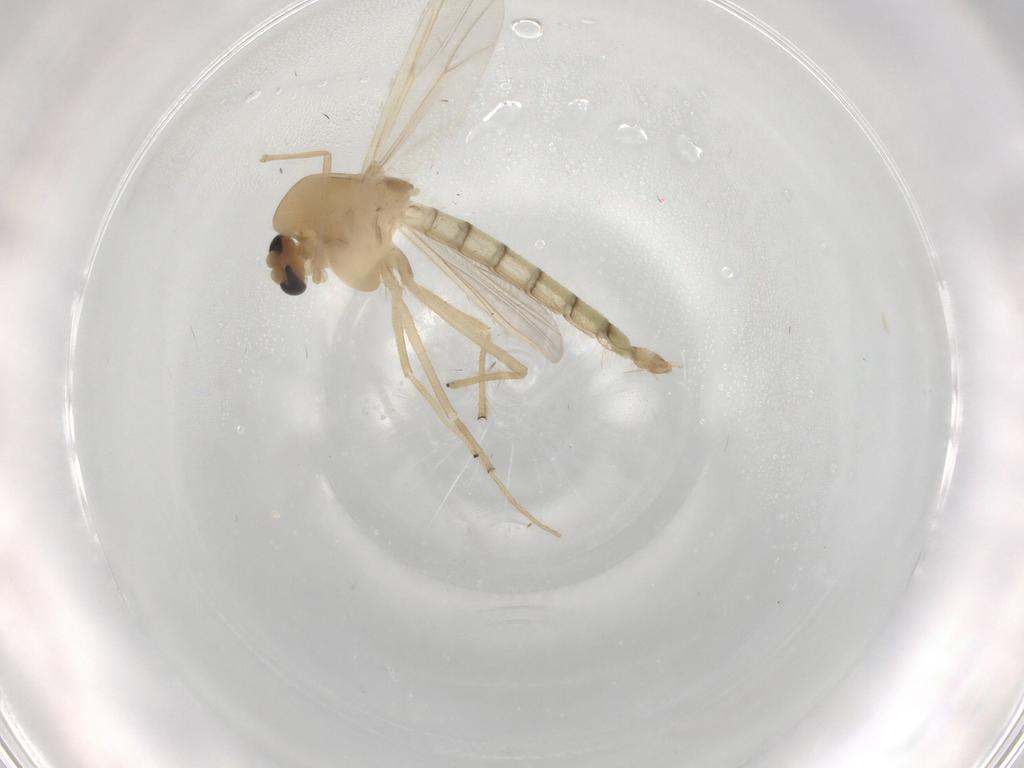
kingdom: Animalia
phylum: Arthropoda
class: Insecta
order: Diptera
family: Chironomidae
